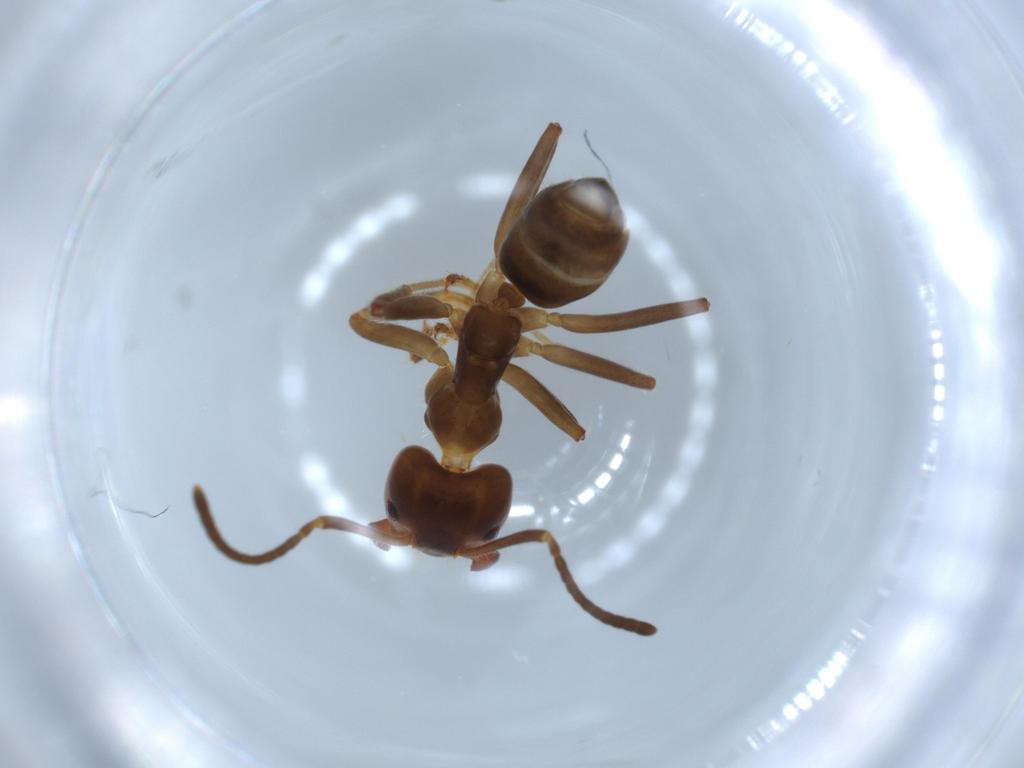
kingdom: Animalia
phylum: Arthropoda
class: Insecta
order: Hymenoptera
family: Formicidae
